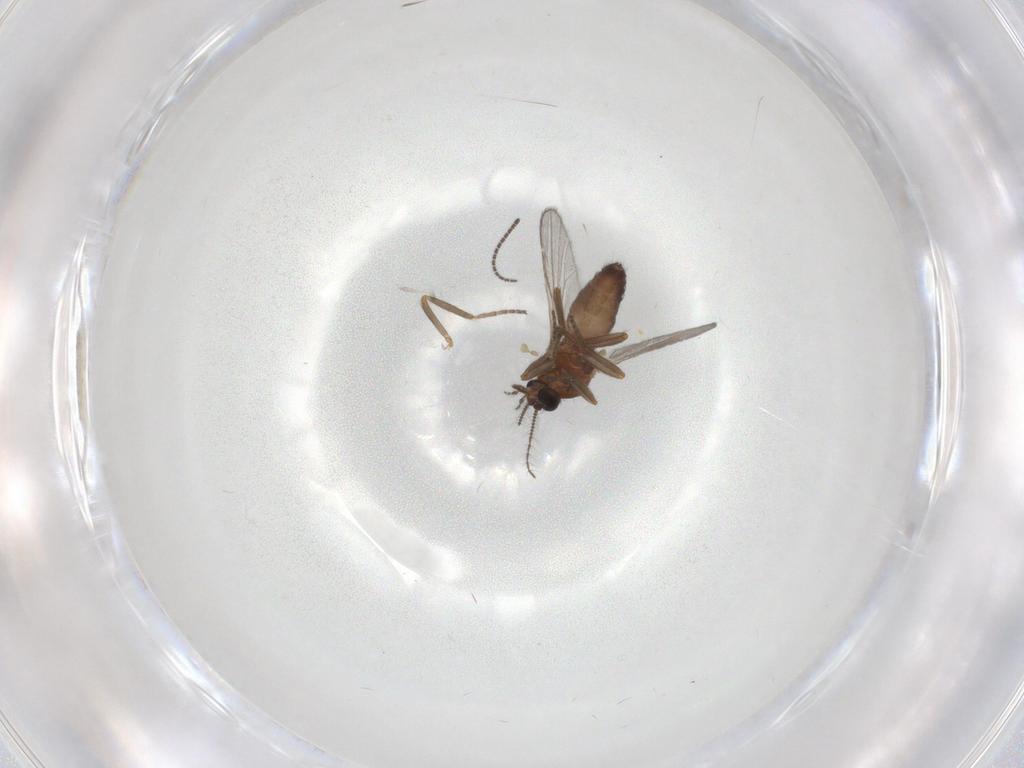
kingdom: Animalia
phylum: Arthropoda
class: Insecta
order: Diptera
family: Ceratopogonidae
